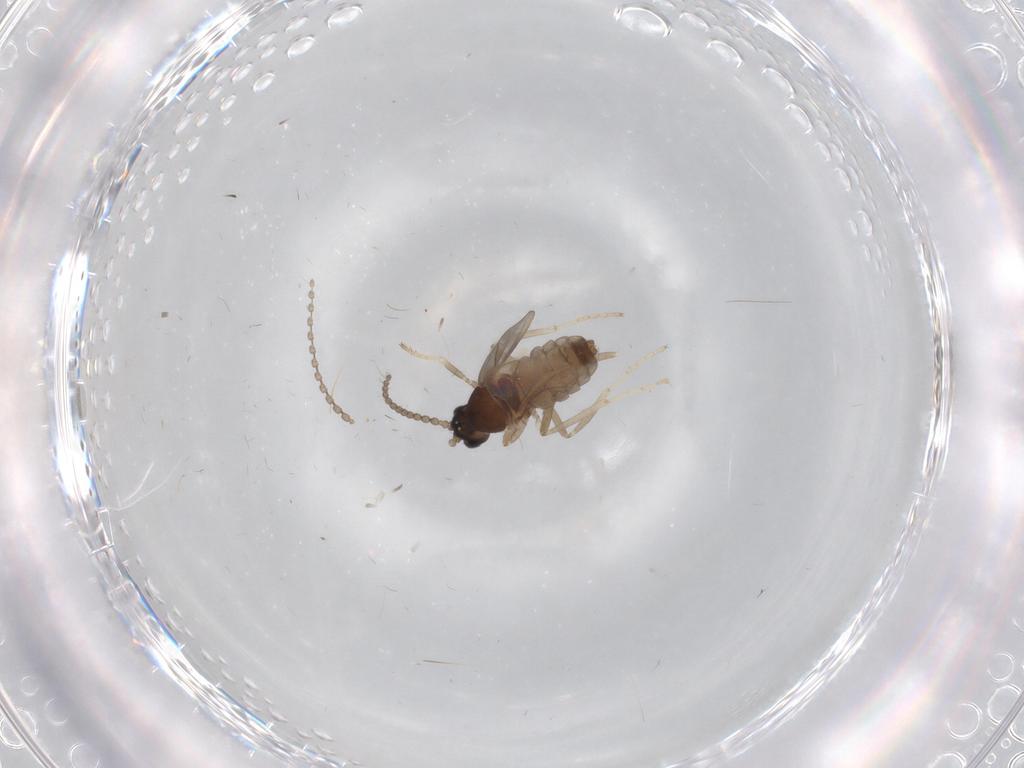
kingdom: Animalia
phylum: Arthropoda
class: Insecta
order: Diptera
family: Cecidomyiidae
